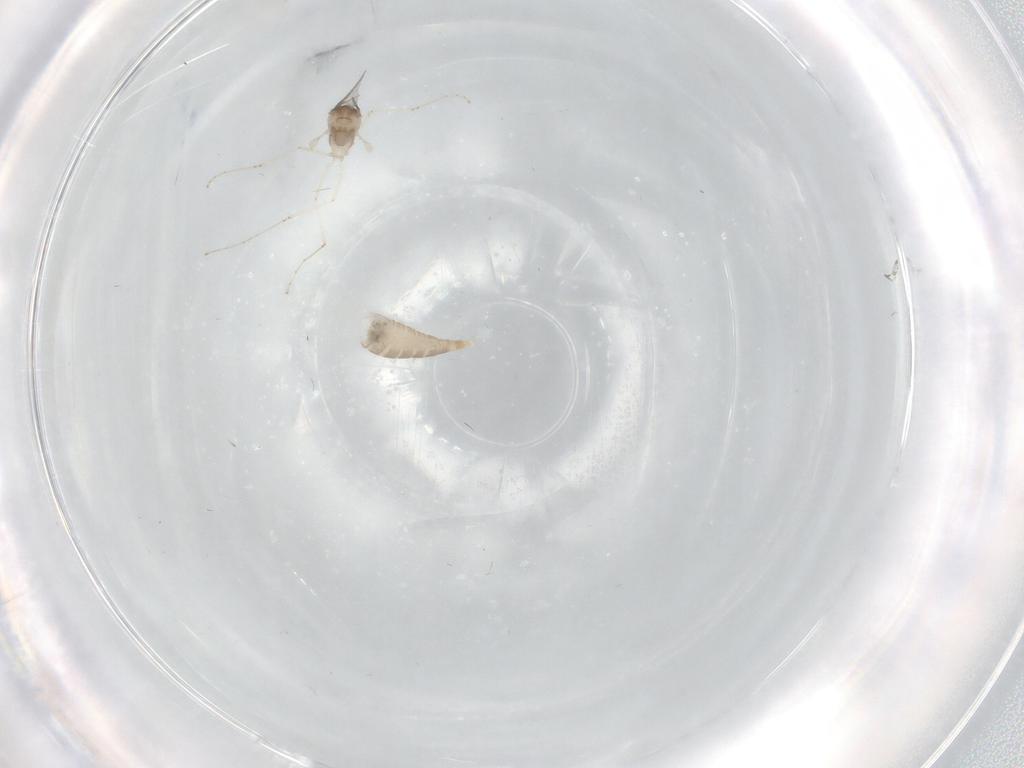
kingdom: Animalia
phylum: Arthropoda
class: Insecta
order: Diptera
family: Cecidomyiidae
